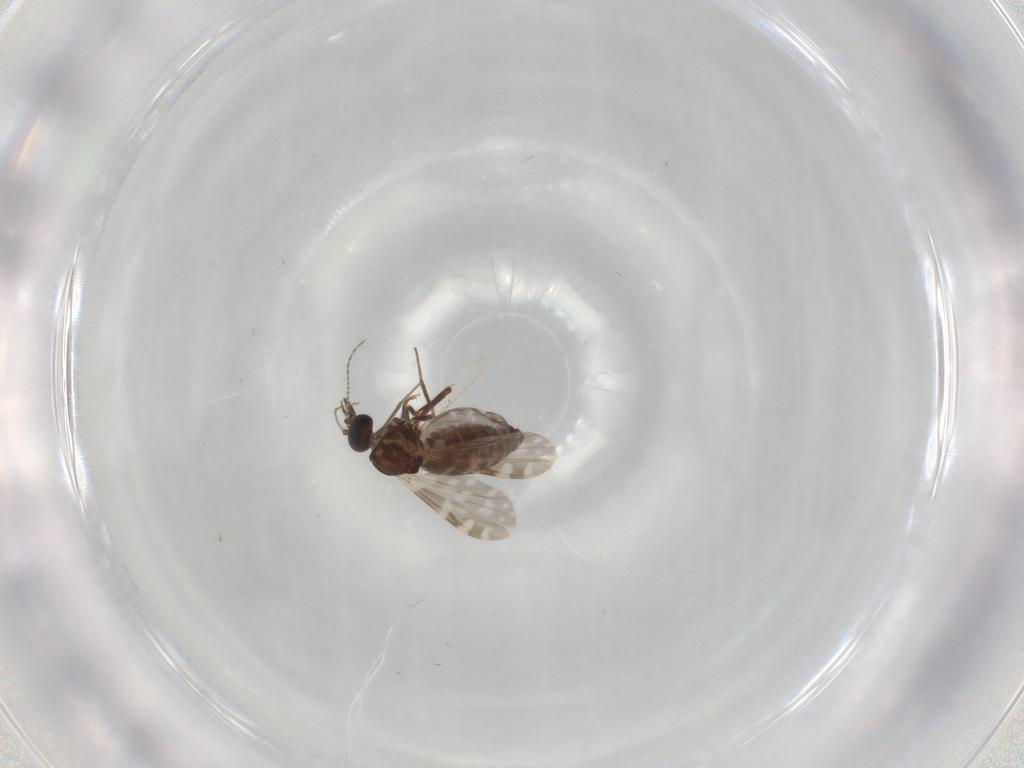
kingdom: Animalia
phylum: Arthropoda
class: Insecta
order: Diptera
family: Ceratopogonidae
